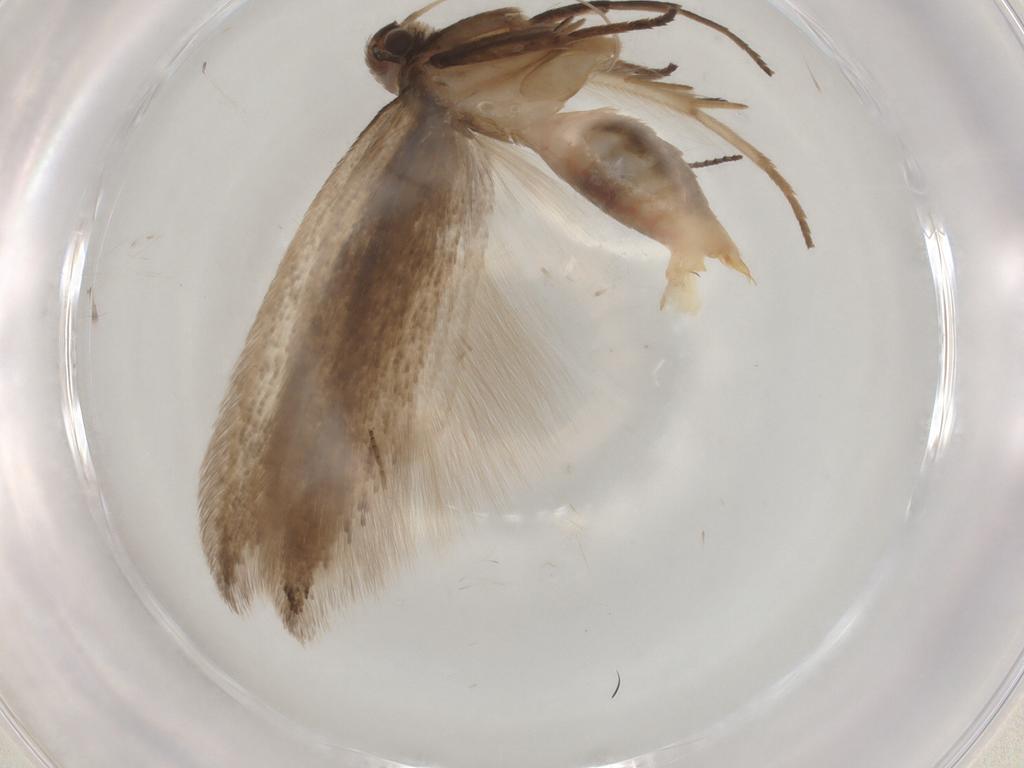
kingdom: Animalia
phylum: Arthropoda
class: Insecta
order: Lepidoptera
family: Gelechiidae
